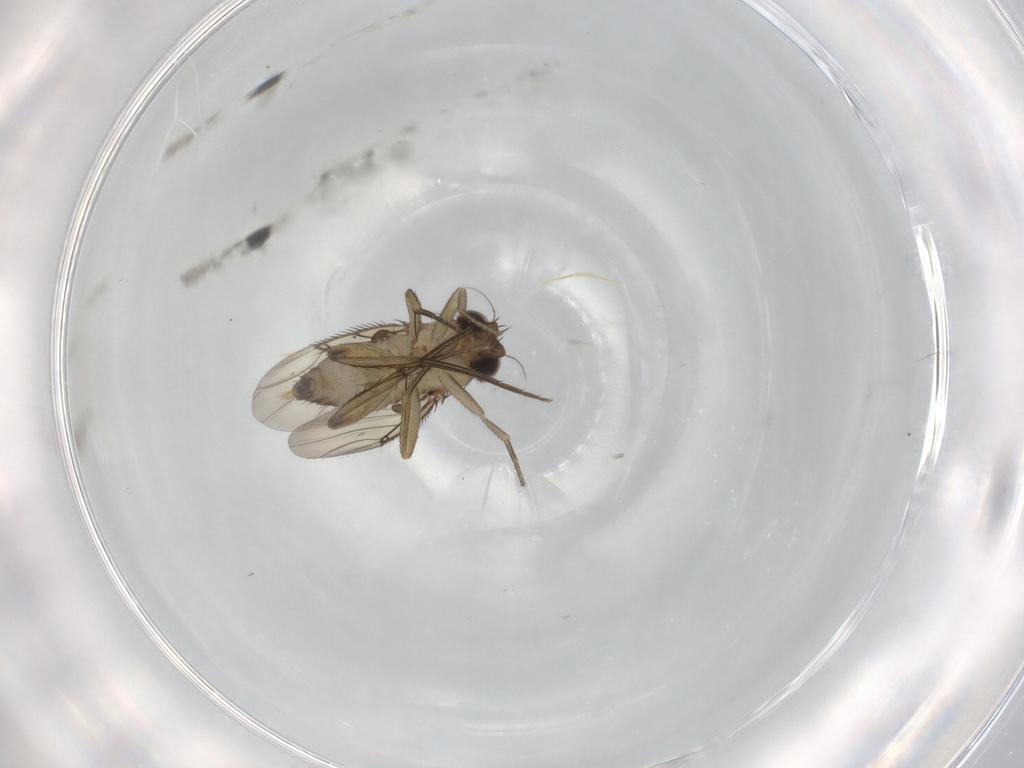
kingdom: Animalia
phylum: Arthropoda
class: Insecta
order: Diptera
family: Phoridae
